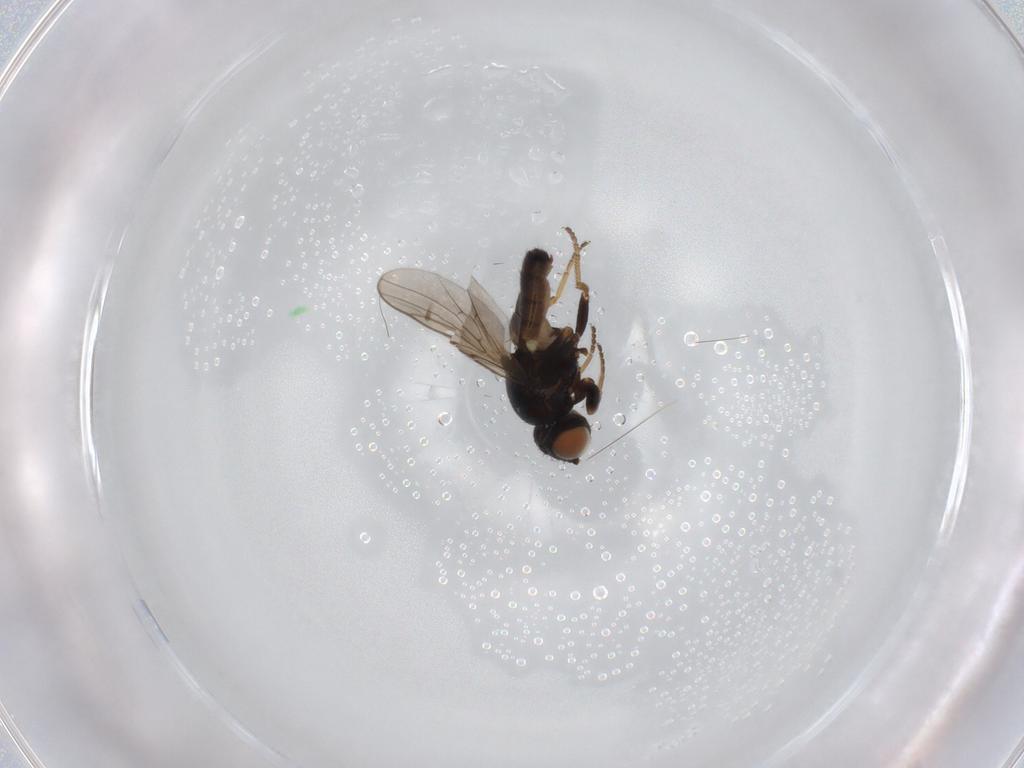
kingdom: Animalia
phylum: Arthropoda
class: Insecta
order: Diptera
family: Chloropidae
